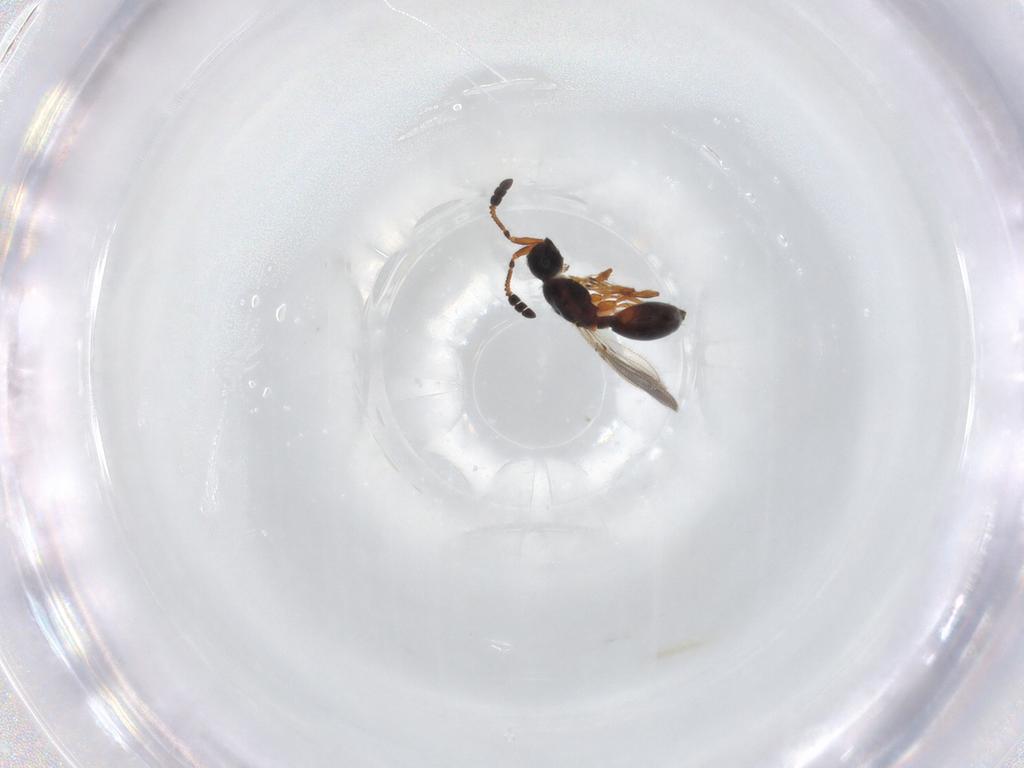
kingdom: Animalia
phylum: Arthropoda
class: Insecta
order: Hymenoptera
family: Diapriidae
